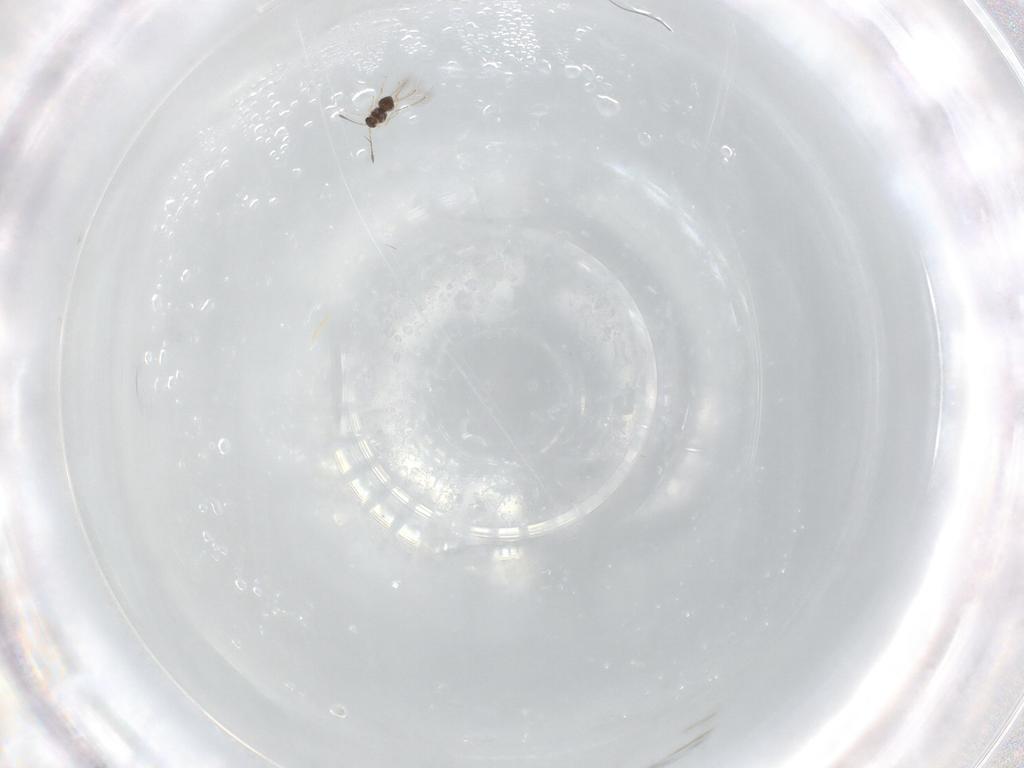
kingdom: Animalia
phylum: Arthropoda
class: Insecta
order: Hymenoptera
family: Mymaridae
